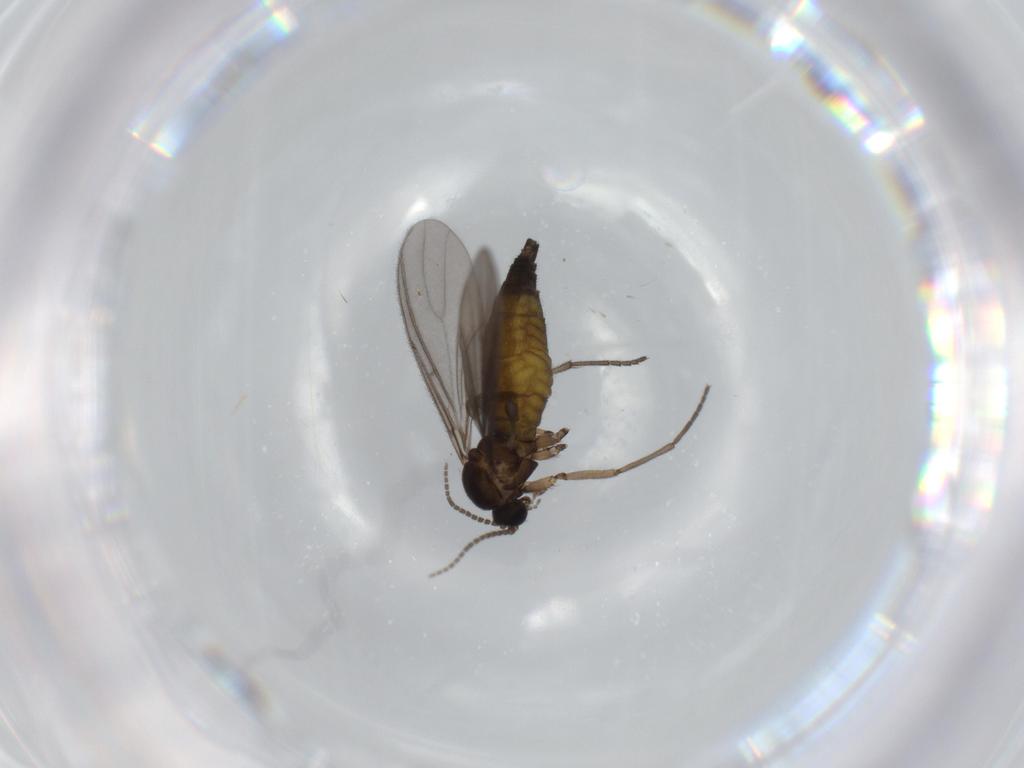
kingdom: Animalia
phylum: Arthropoda
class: Insecta
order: Diptera
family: Sciaridae
